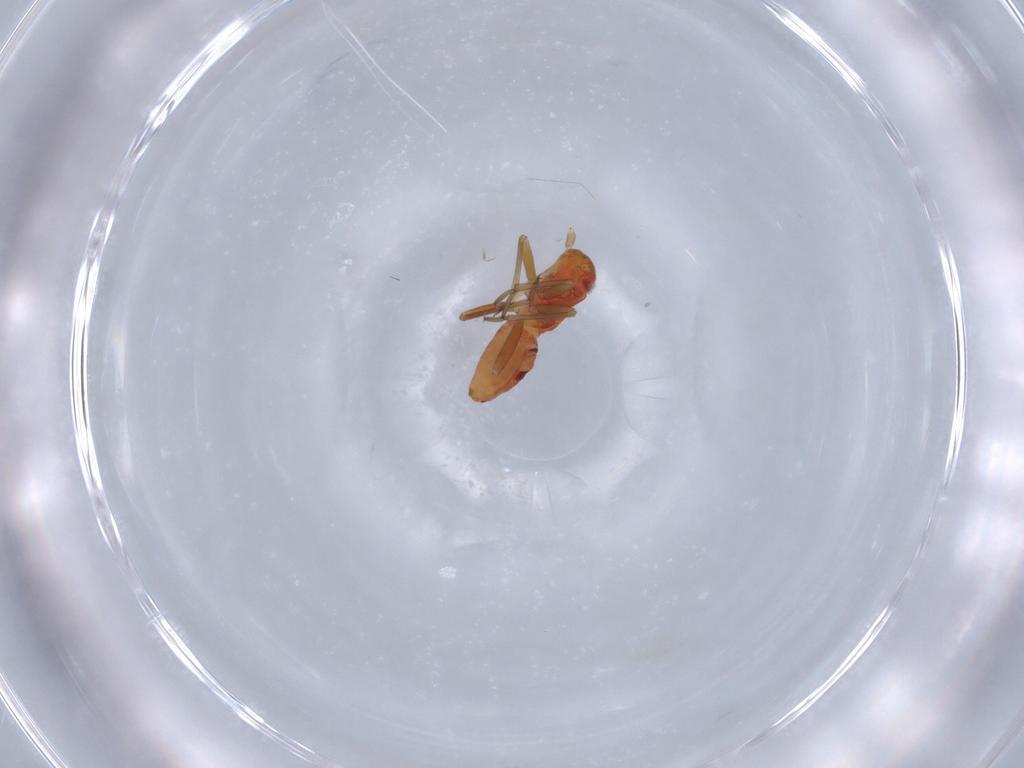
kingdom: Animalia
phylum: Arthropoda
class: Insecta
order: Hemiptera
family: Miridae
